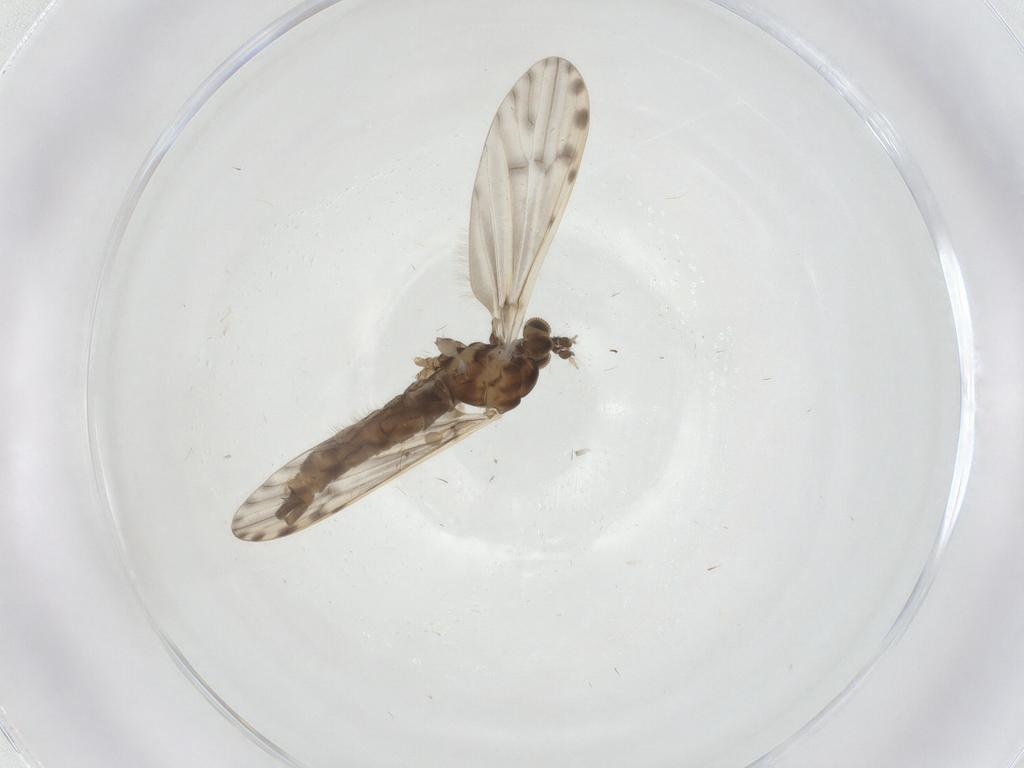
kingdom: Animalia
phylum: Arthropoda
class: Insecta
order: Diptera
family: Limoniidae
